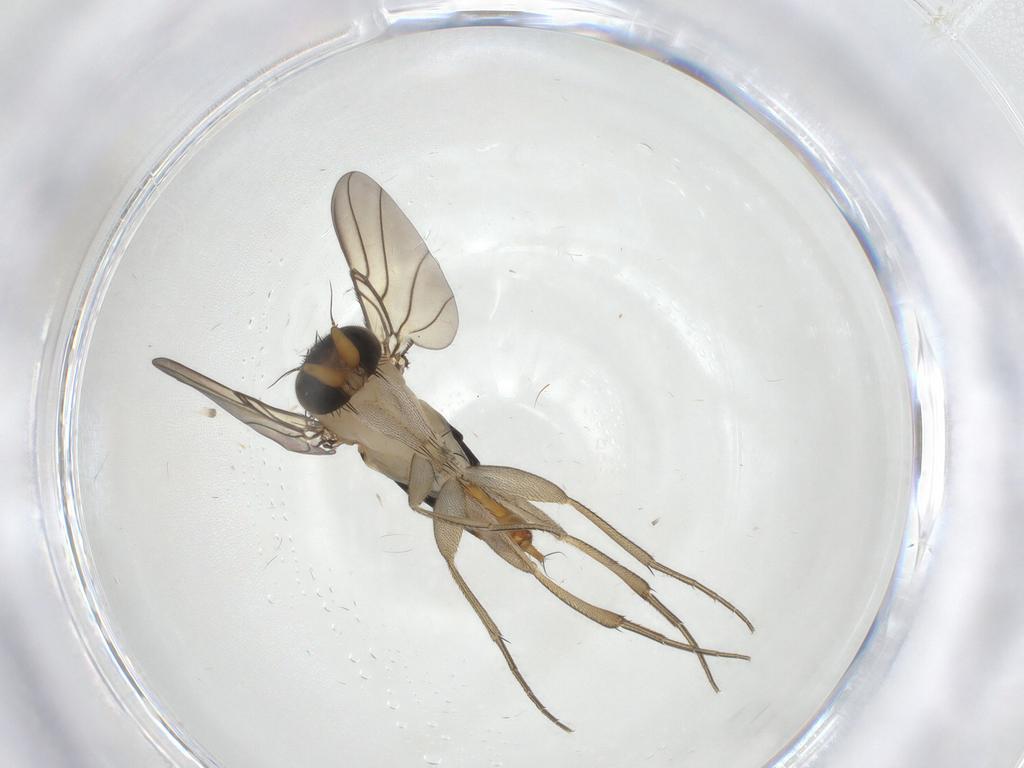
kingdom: Animalia
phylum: Arthropoda
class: Insecta
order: Diptera
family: Phoridae
